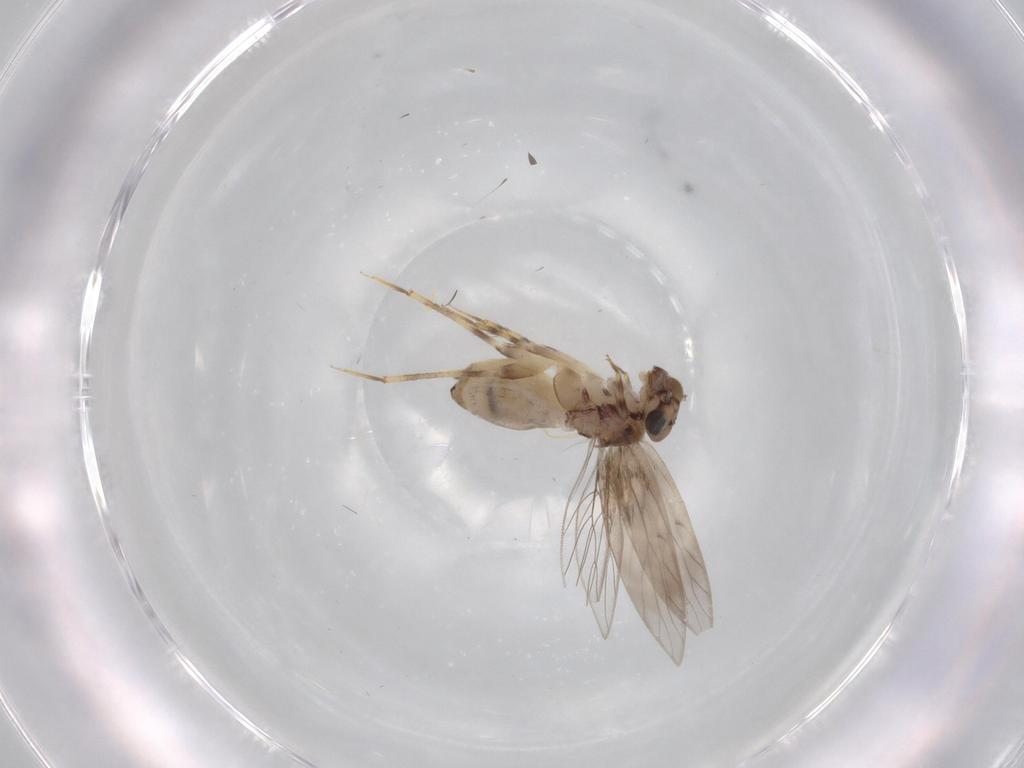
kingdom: Animalia
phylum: Arthropoda
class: Insecta
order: Psocodea
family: Lepidopsocidae
